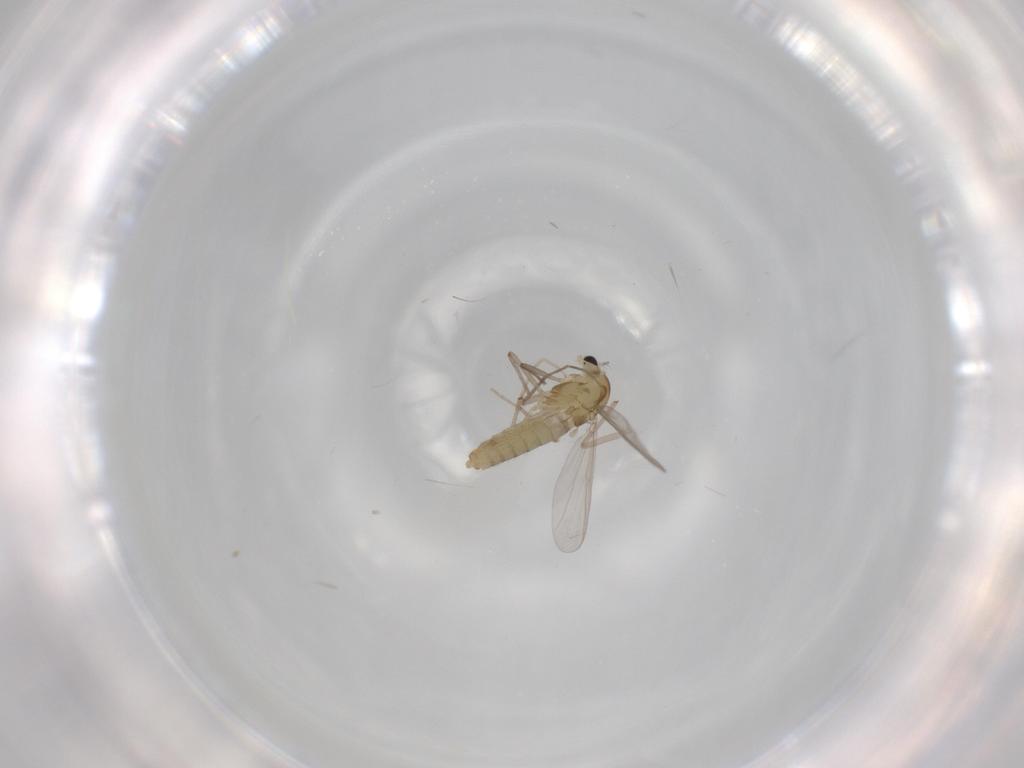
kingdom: Animalia
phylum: Arthropoda
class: Insecta
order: Diptera
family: Chironomidae
